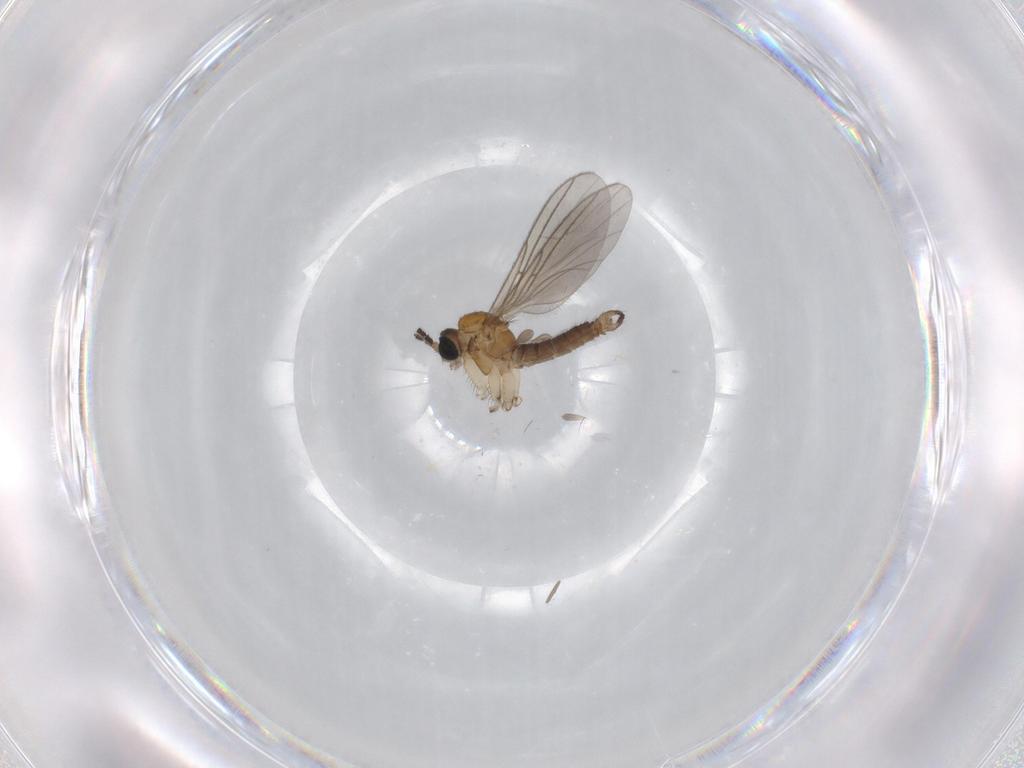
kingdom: Animalia
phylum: Arthropoda
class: Insecta
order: Diptera
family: Sciaridae
